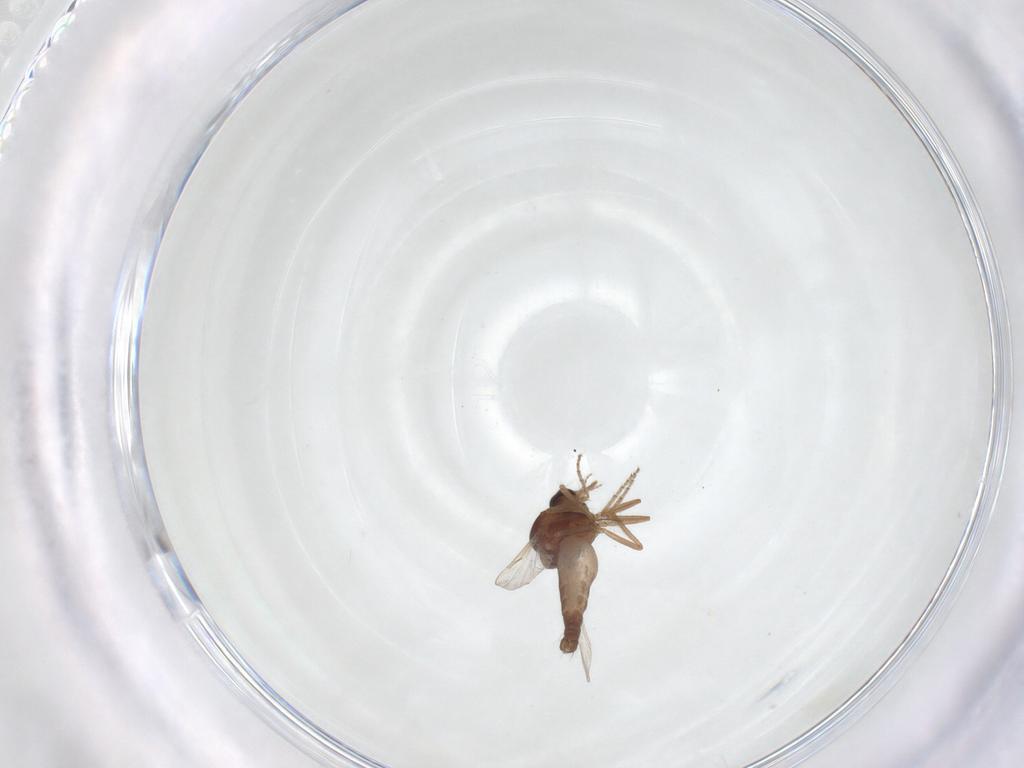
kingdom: Animalia
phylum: Arthropoda
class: Insecta
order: Diptera
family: Ceratopogonidae
